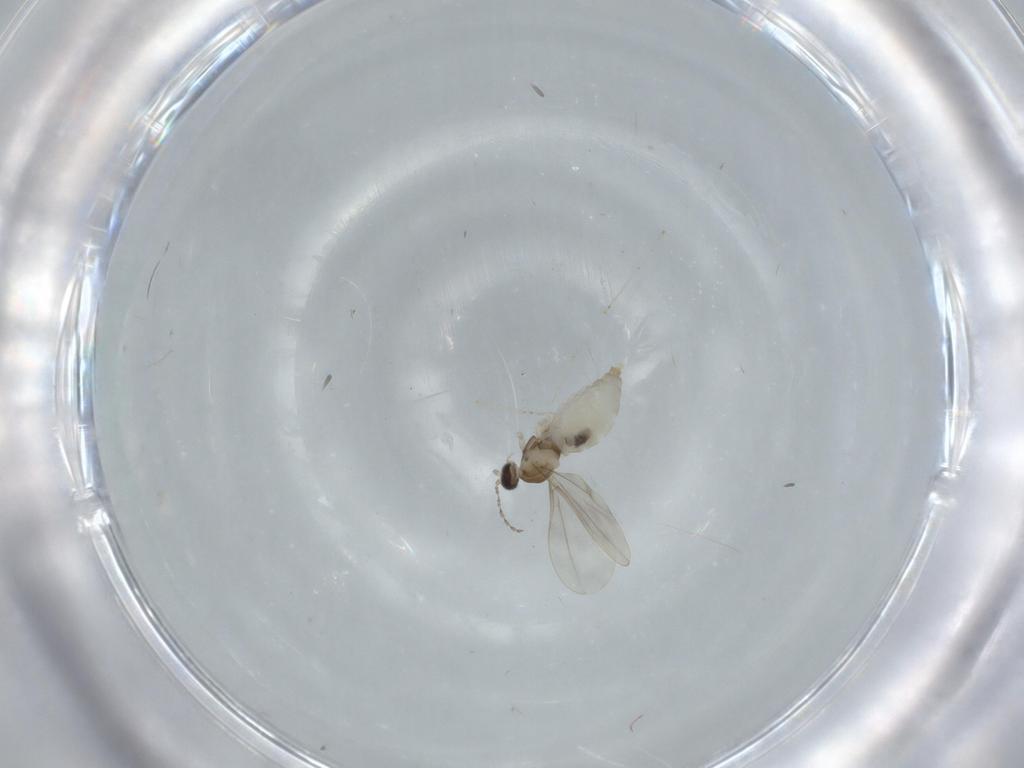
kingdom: Animalia
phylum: Arthropoda
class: Insecta
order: Diptera
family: Cecidomyiidae
